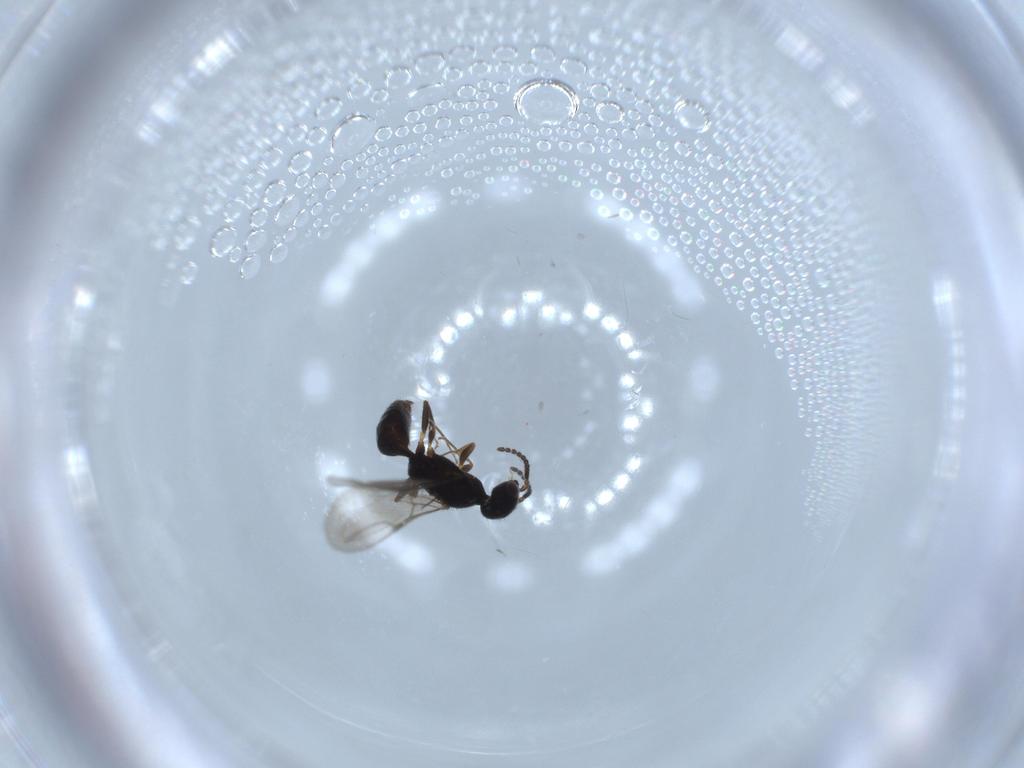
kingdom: Animalia
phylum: Arthropoda
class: Insecta
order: Hymenoptera
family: Bethylidae
